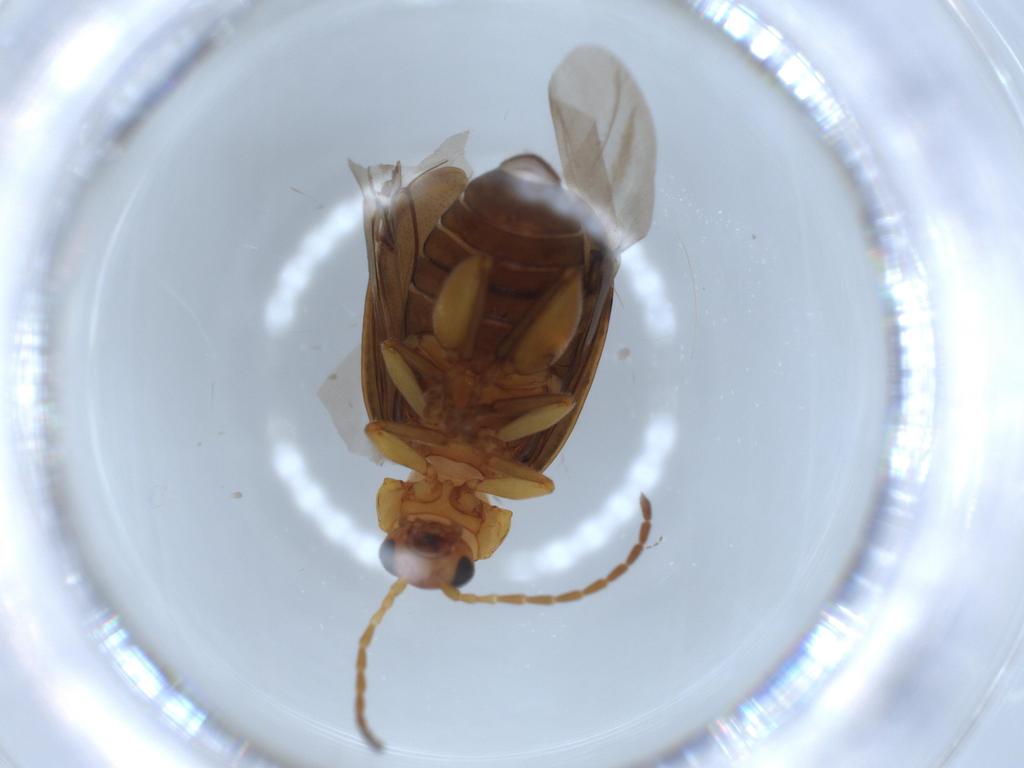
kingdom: Animalia
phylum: Arthropoda
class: Insecta
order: Coleoptera
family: Chrysomelidae
